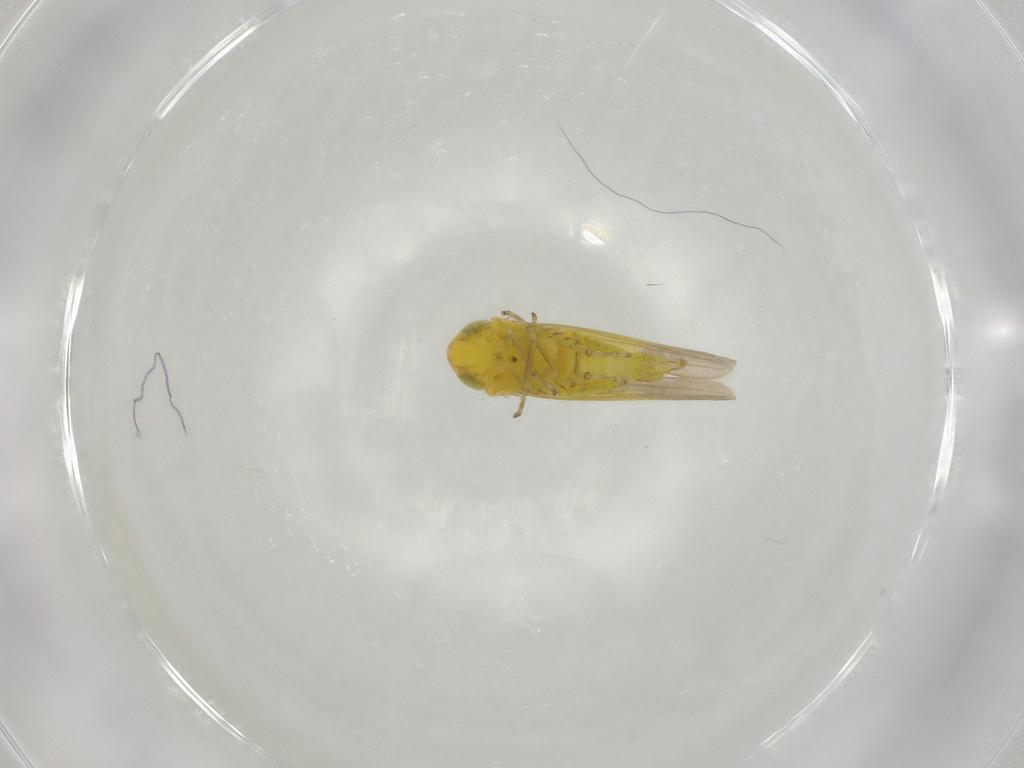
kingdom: Animalia
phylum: Arthropoda
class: Insecta
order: Hemiptera
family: Cicadellidae
